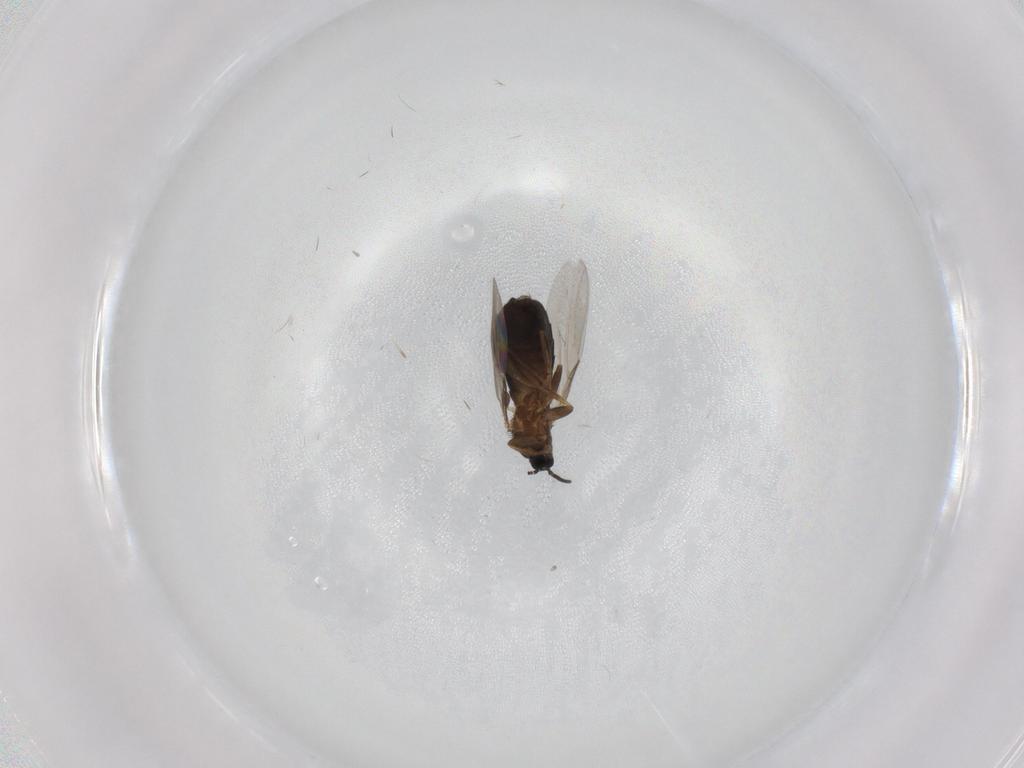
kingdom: Animalia
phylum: Arthropoda
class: Insecta
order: Diptera
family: Scatopsidae
